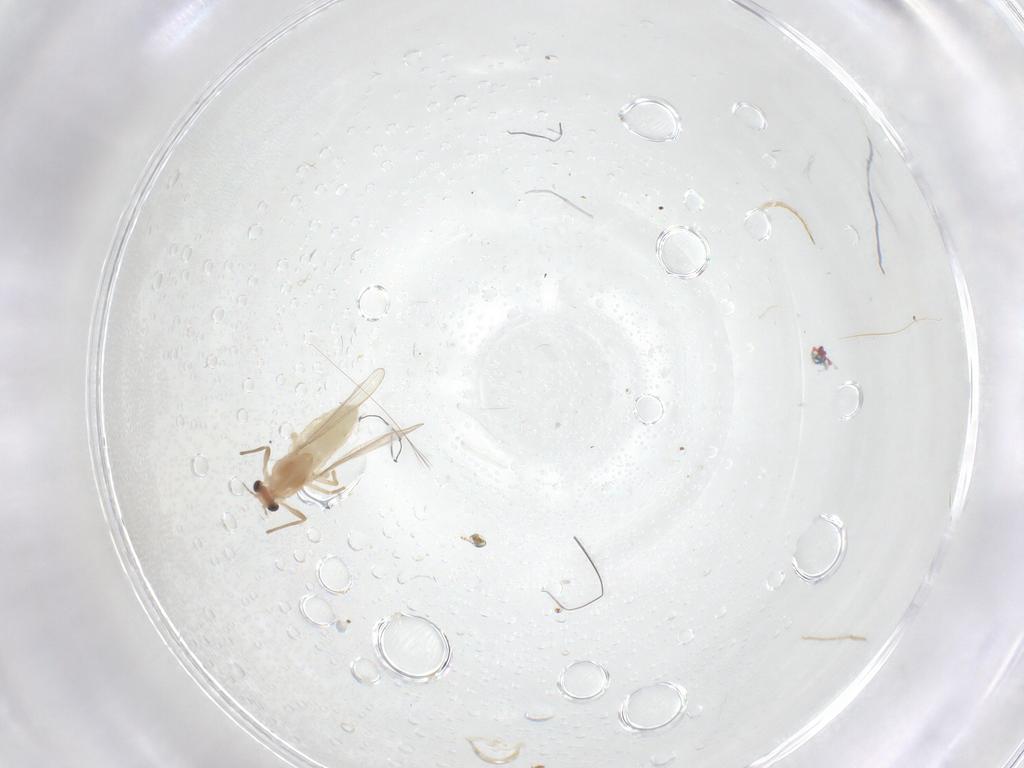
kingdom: Animalia
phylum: Arthropoda
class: Insecta
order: Diptera
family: Chironomidae
